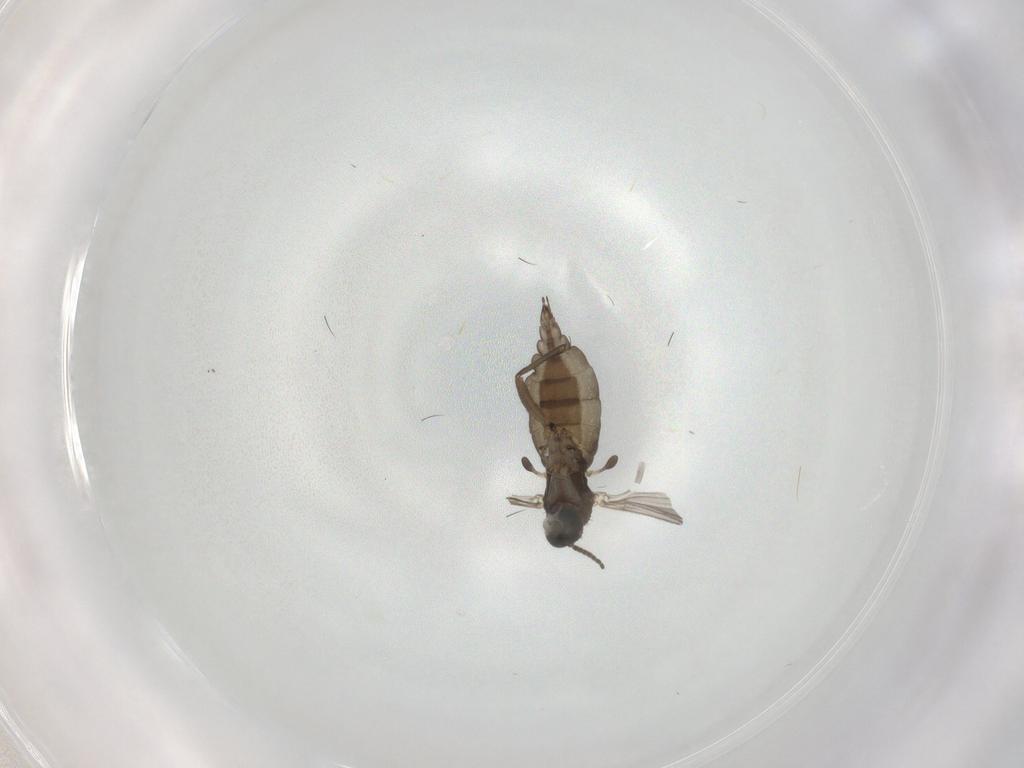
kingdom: Animalia
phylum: Arthropoda
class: Insecta
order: Diptera
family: Sciaridae
